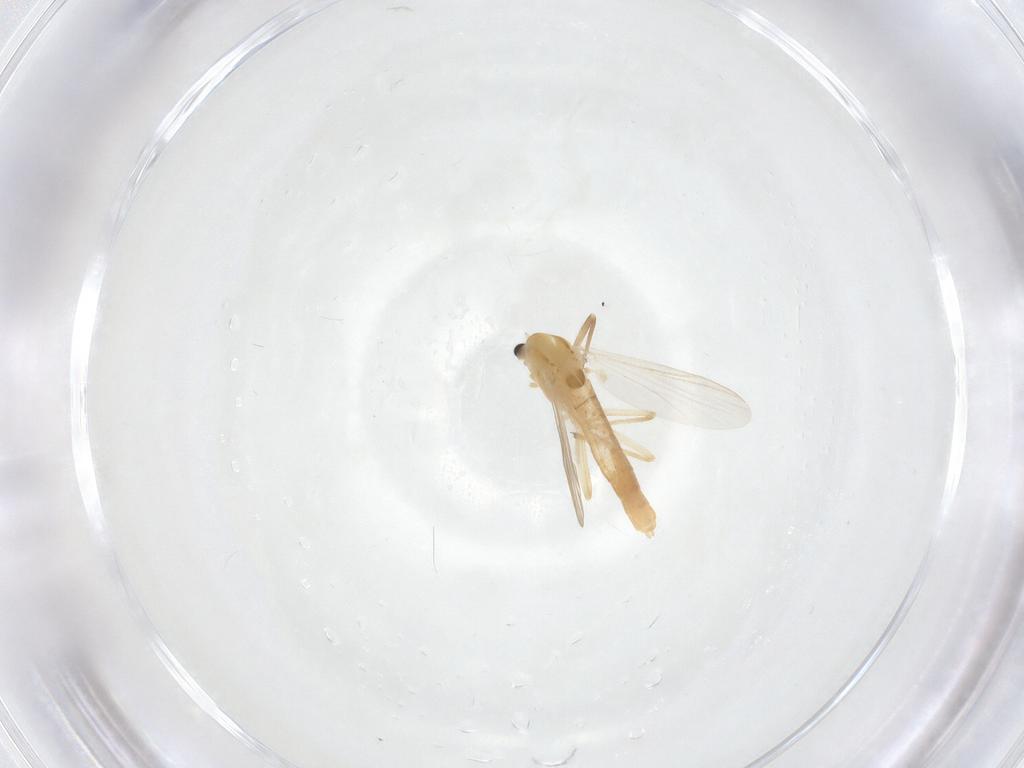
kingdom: Animalia
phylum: Arthropoda
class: Insecta
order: Diptera
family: Chironomidae
